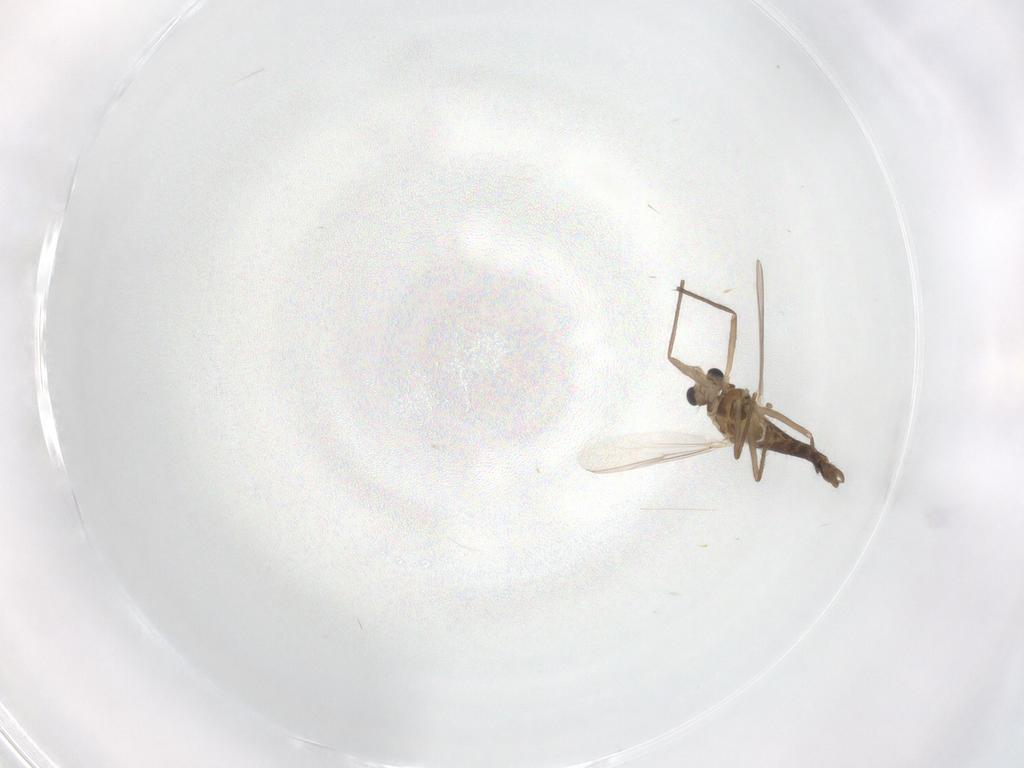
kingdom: Animalia
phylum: Arthropoda
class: Insecta
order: Diptera
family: Chironomidae
